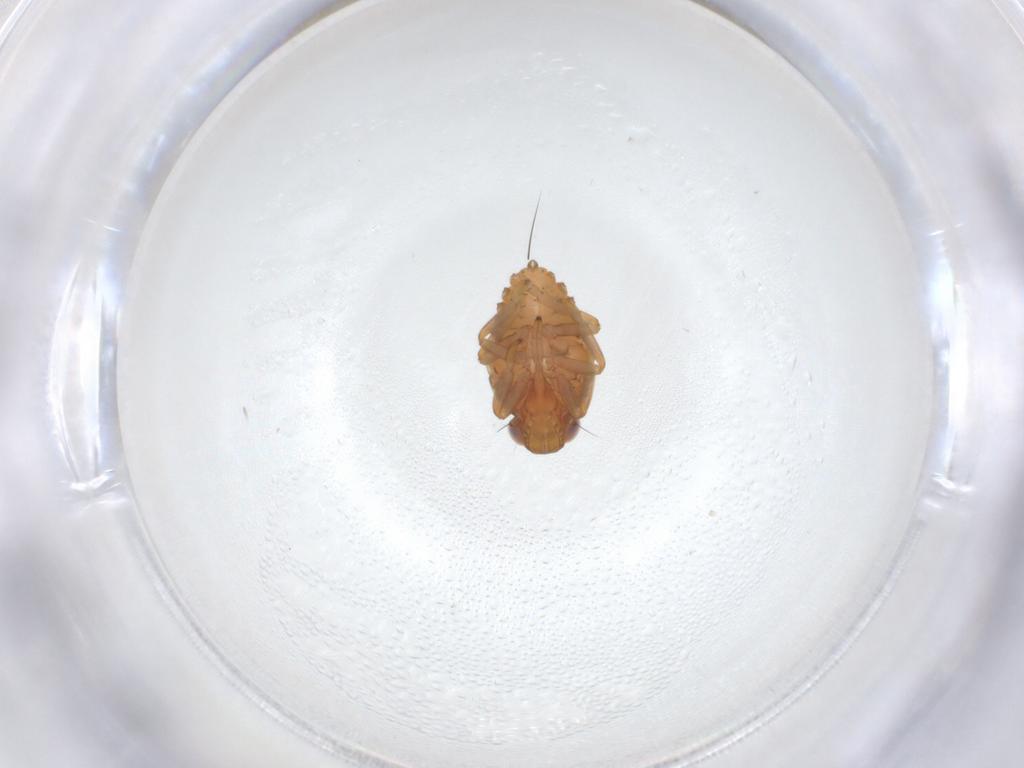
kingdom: Animalia
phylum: Arthropoda
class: Insecta
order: Hemiptera
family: Issidae
